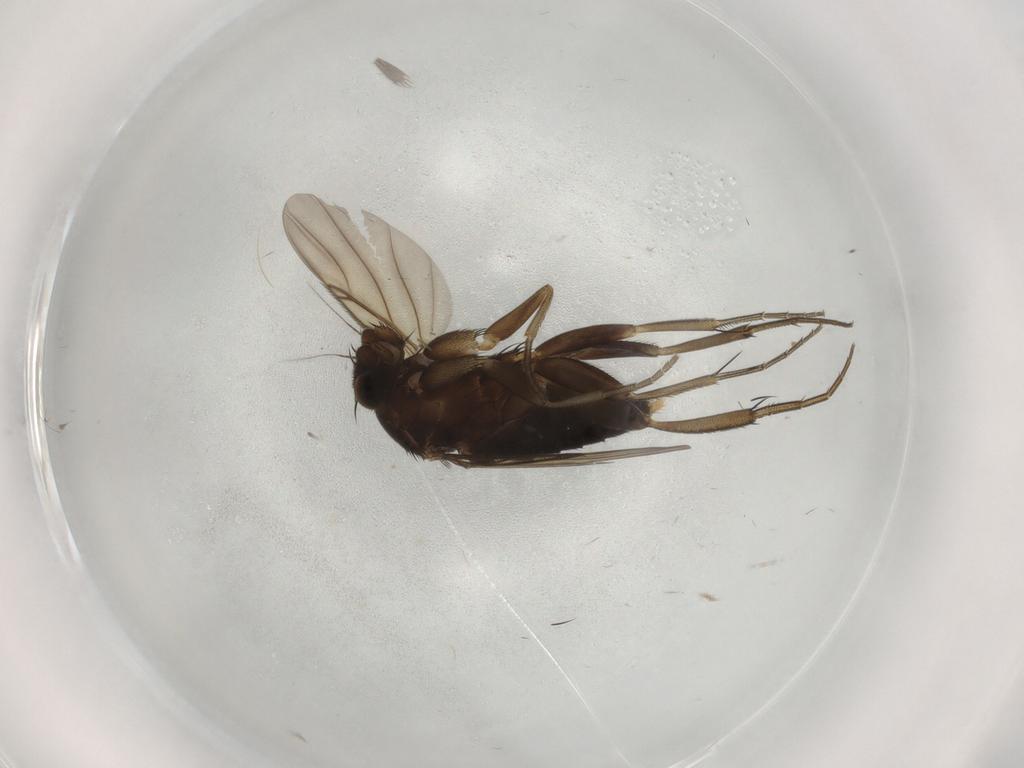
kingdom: Animalia
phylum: Arthropoda
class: Insecta
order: Diptera
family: Phoridae
